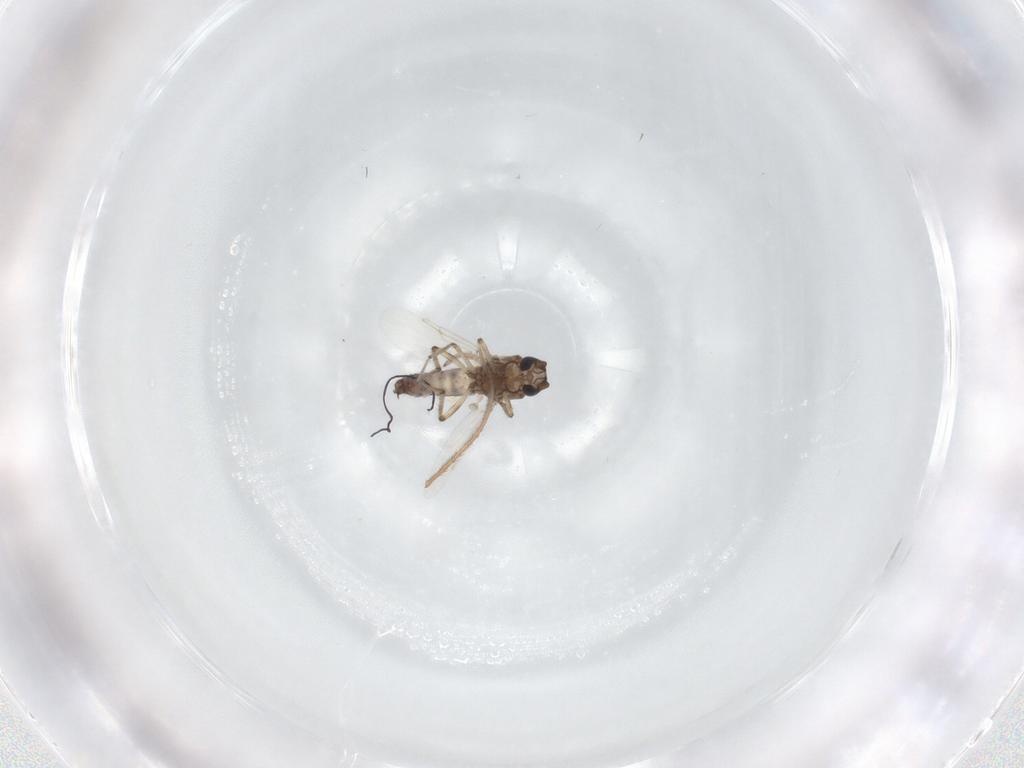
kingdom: Animalia
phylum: Arthropoda
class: Insecta
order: Diptera
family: Ceratopogonidae
